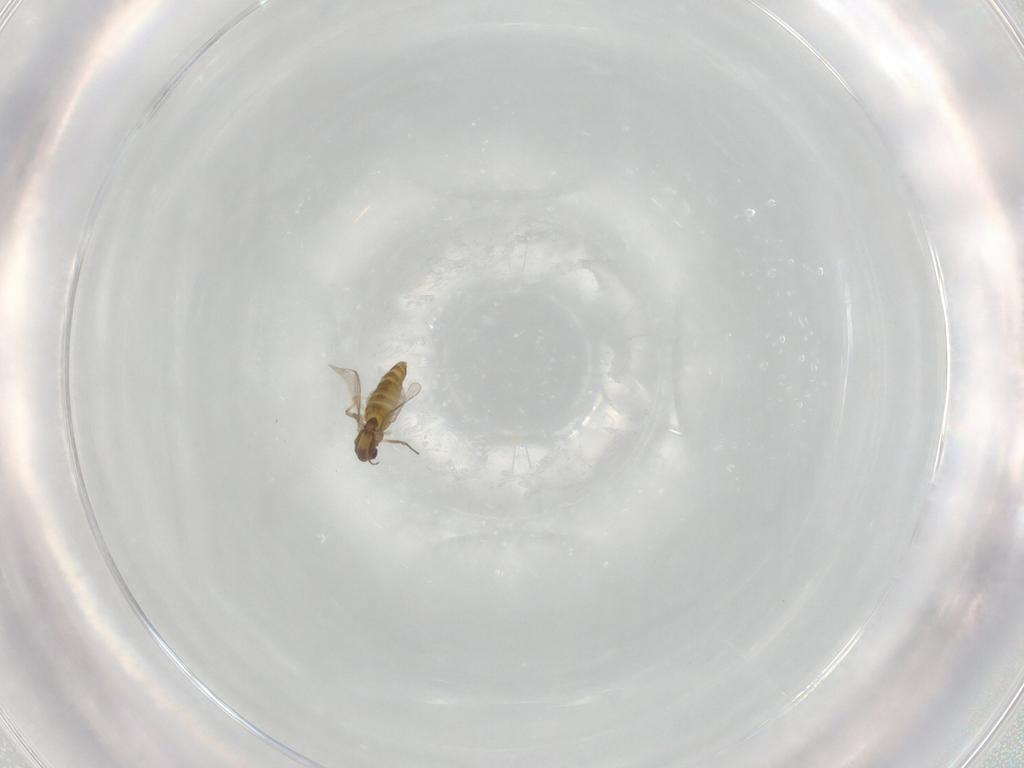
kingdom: Animalia
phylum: Arthropoda
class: Insecta
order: Diptera
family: Chironomidae
